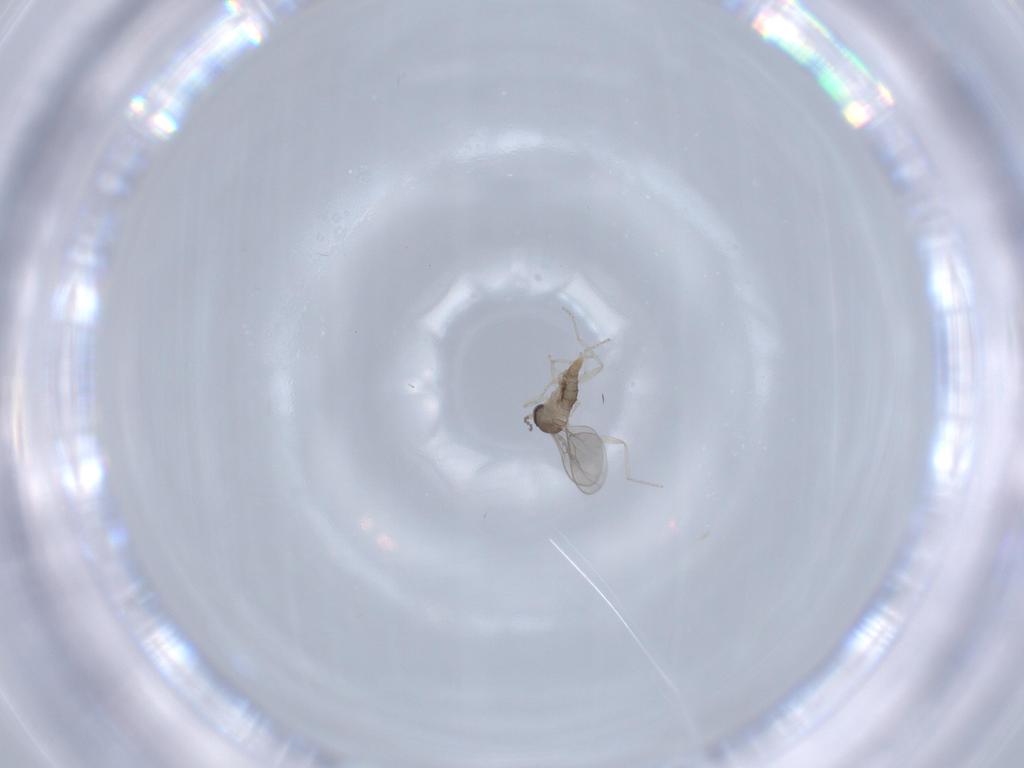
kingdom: Animalia
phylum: Arthropoda
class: Insecta
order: Diptera
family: Cecidomyiidae
